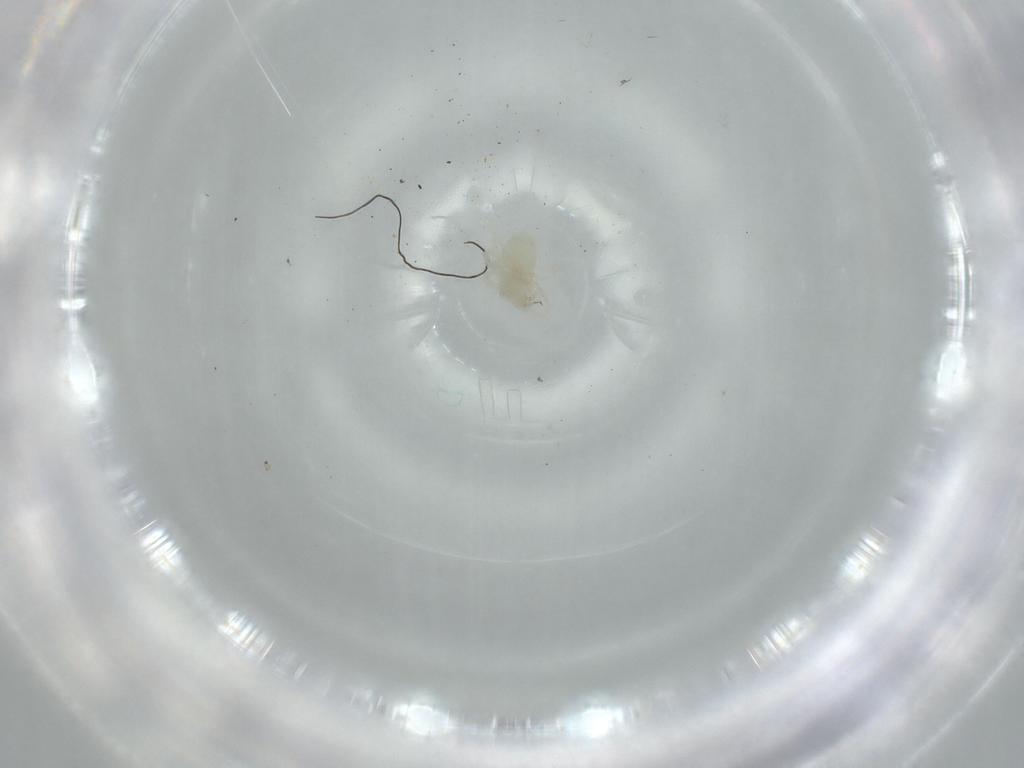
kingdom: Animalia
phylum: Arthropoda
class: Arachnida
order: Trombidiformes
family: Anystidae
